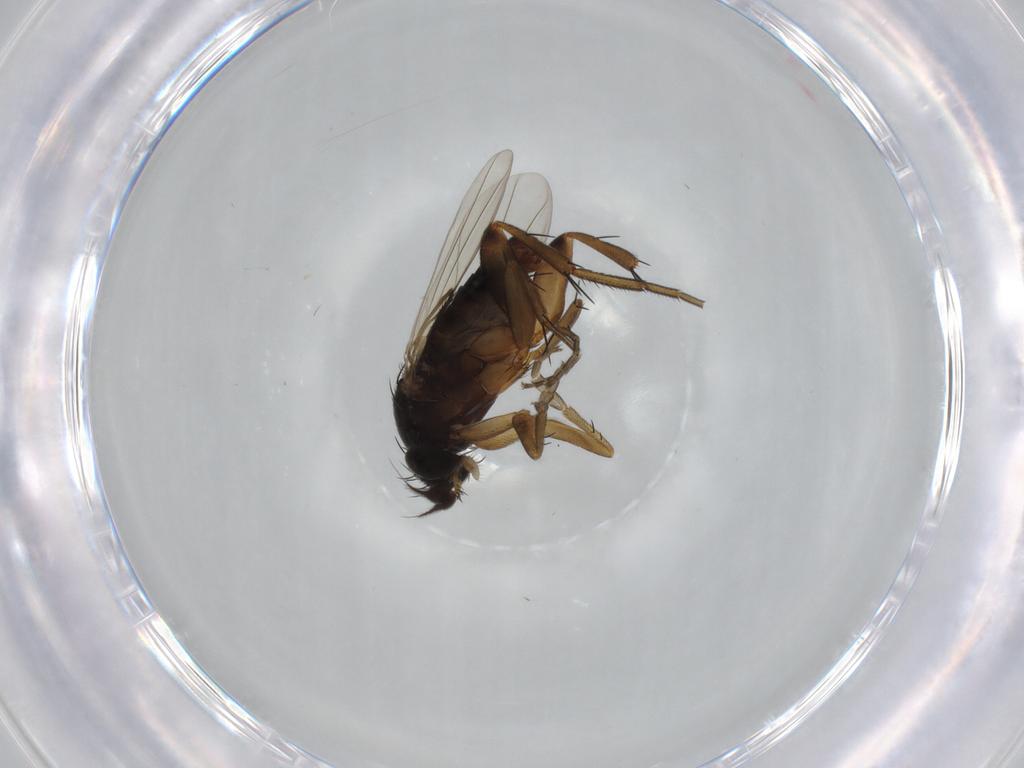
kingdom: Animalia
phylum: Arthropoda
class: Insecta
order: Diptera
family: Phoridae
